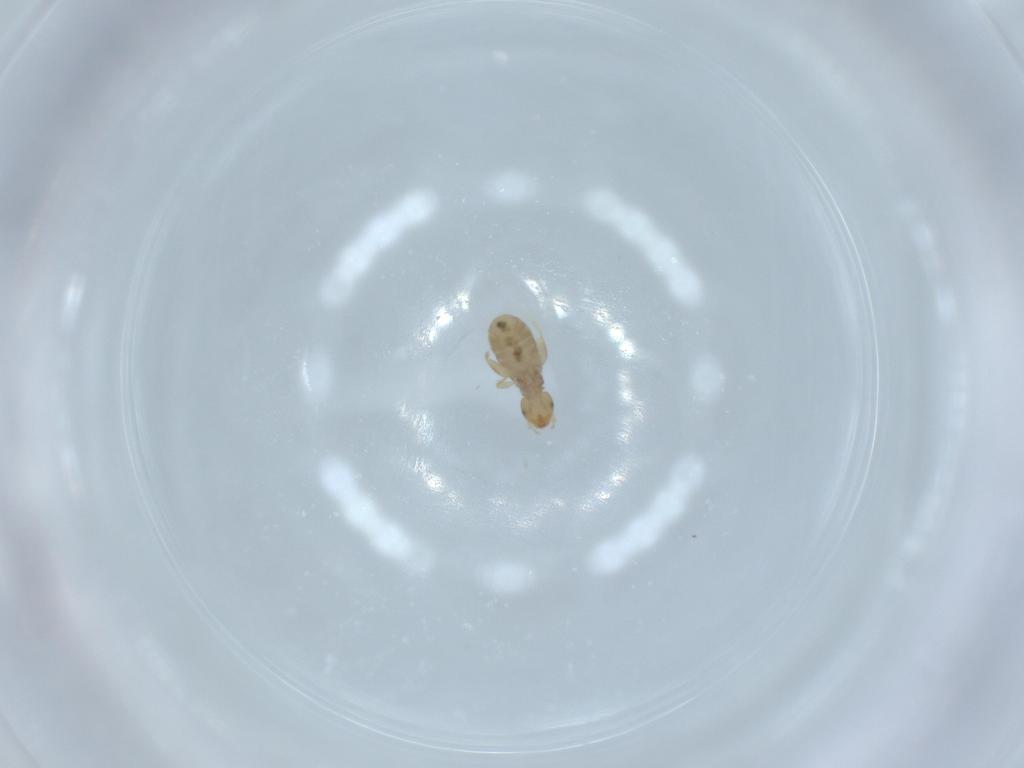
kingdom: Animalia
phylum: Arthropoda
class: Insecta
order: Psocodea
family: Liposcelididae
